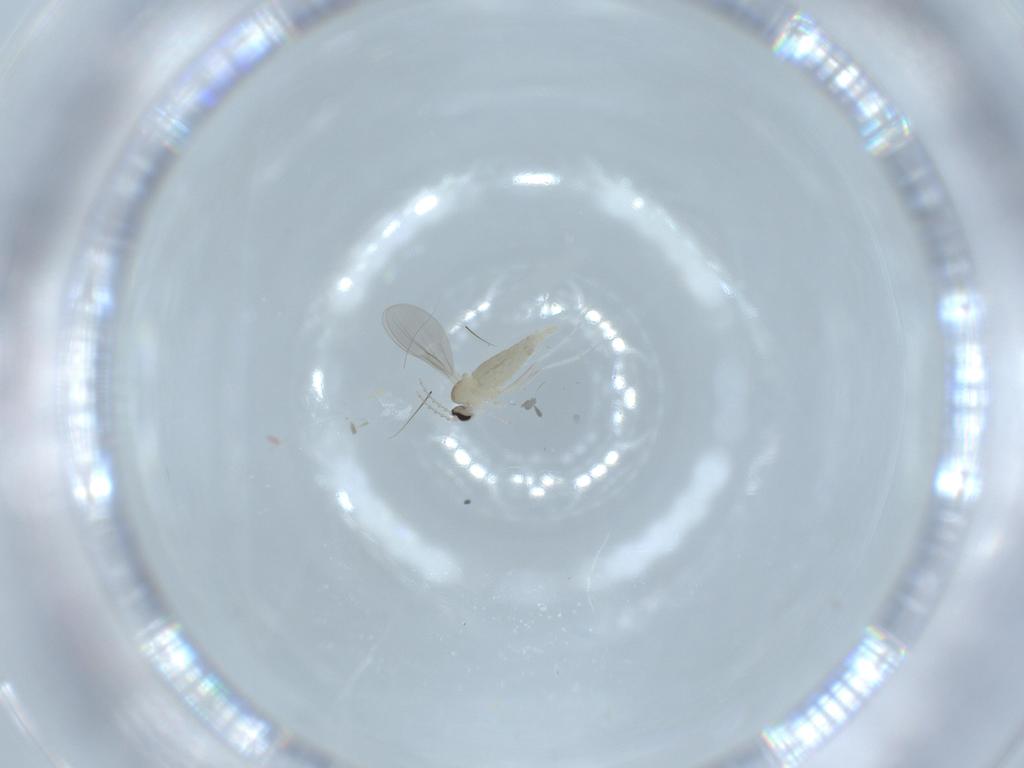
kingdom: Animalia
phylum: Arthropoda
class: Insecta
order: Diptera
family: Cecidomyiidae
